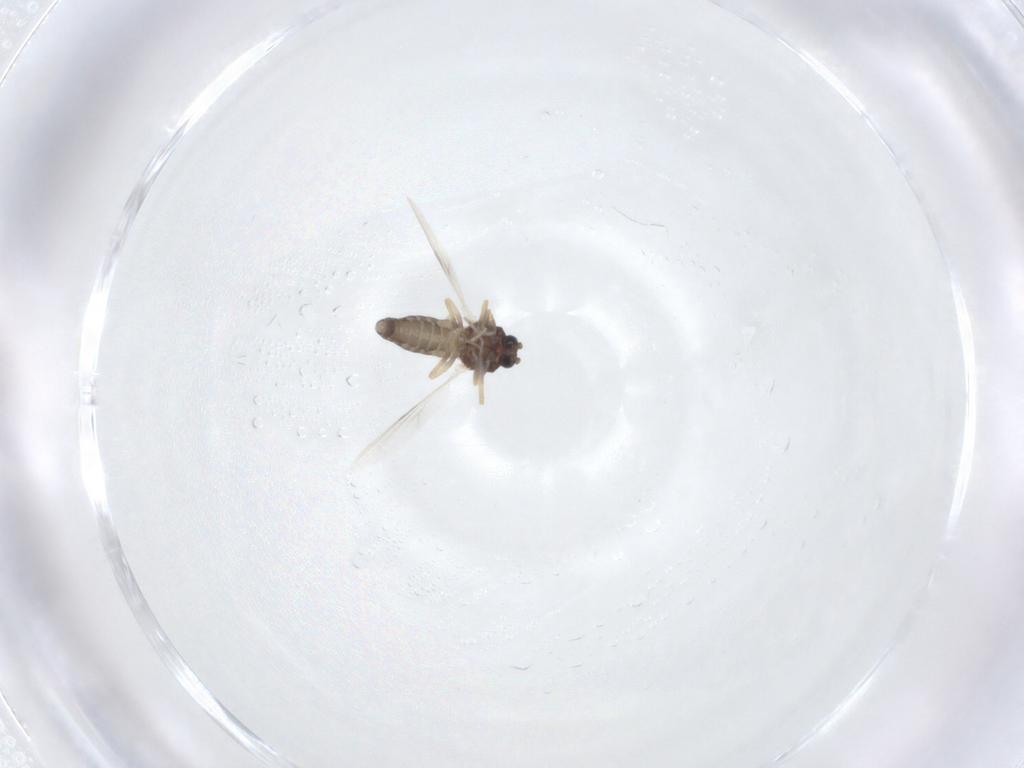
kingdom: Animalia
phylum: Arthropoda
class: Insecta
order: Diptera
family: Ceratopogonidae
